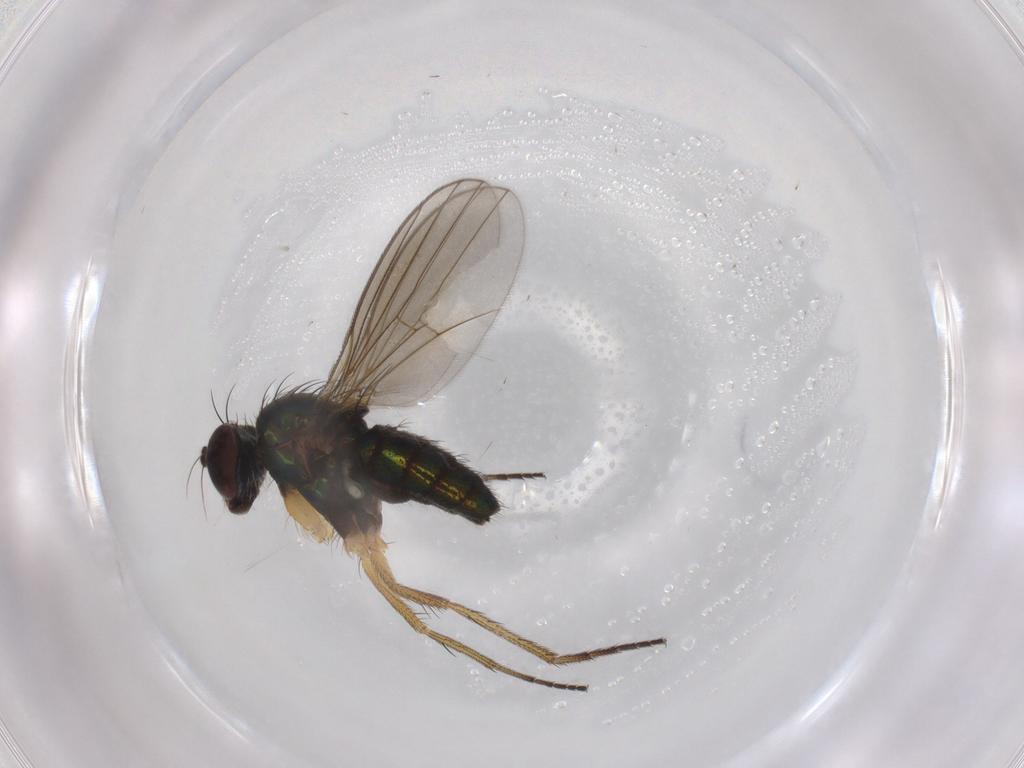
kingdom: Animalia
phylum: Arthropoda
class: Insecta
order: Diptera
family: Dolichopodidae
